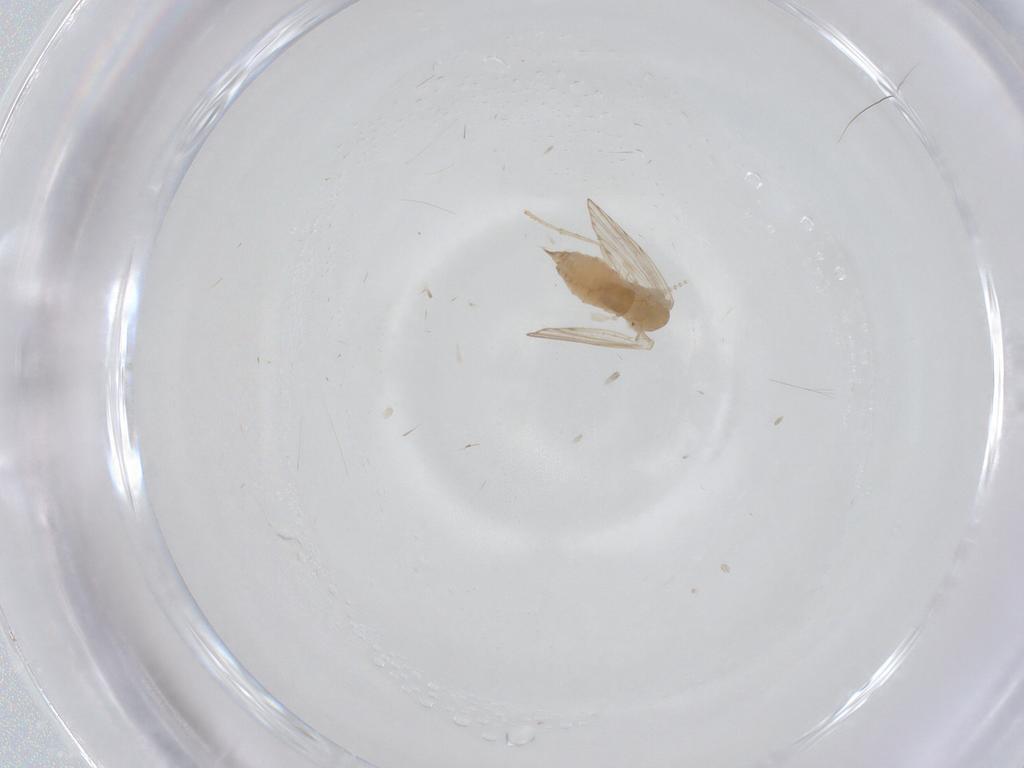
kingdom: Animalia
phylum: Arthropoda
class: Insecta
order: Diptera
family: Psychodidae
